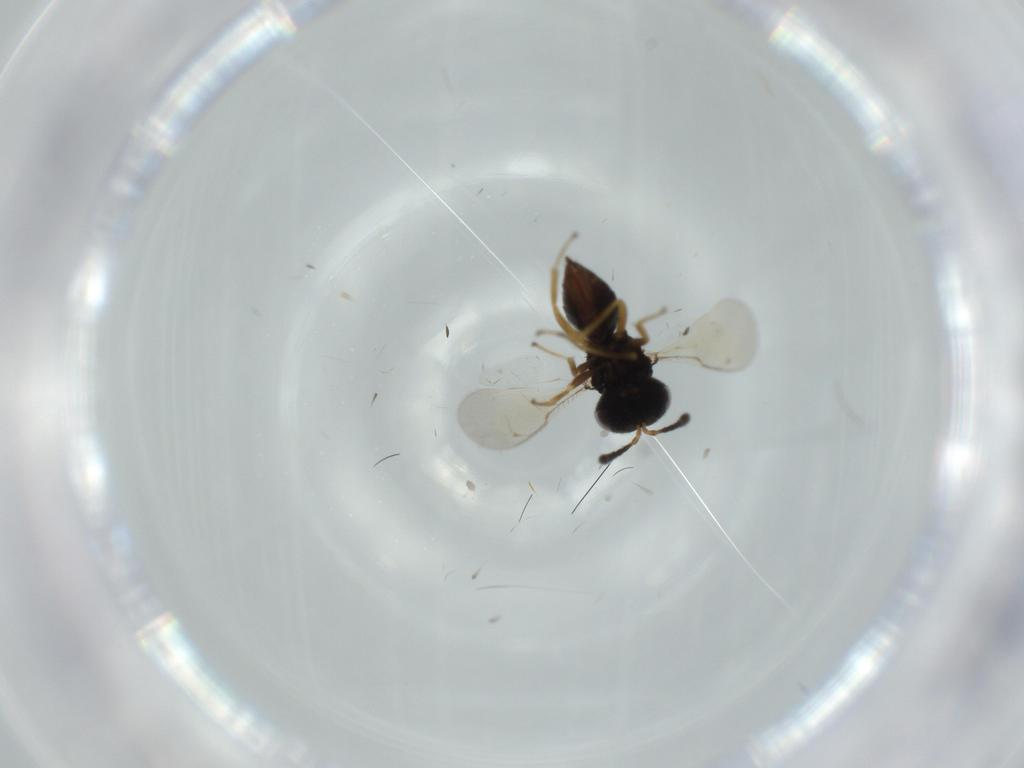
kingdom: Animalia
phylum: Arthropoda
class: Insecta
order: Hymenoptera
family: Pteromalidae
